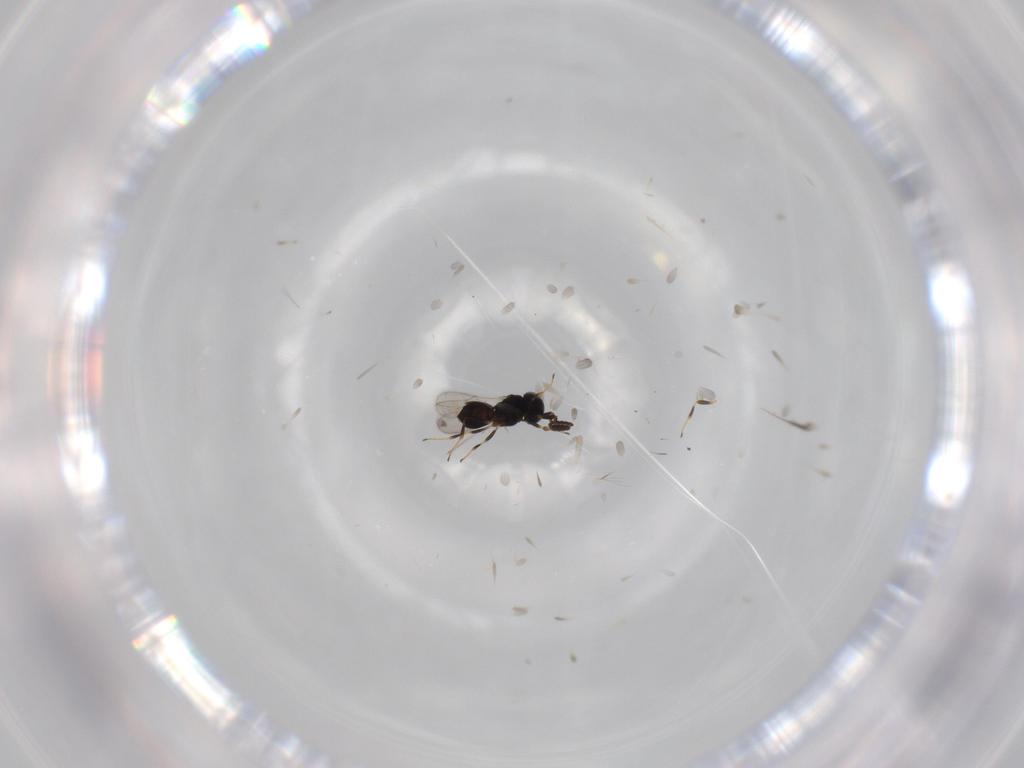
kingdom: Animalia
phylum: Arthropoda
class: Insecta
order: Hymenoptera
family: Scelionidae
